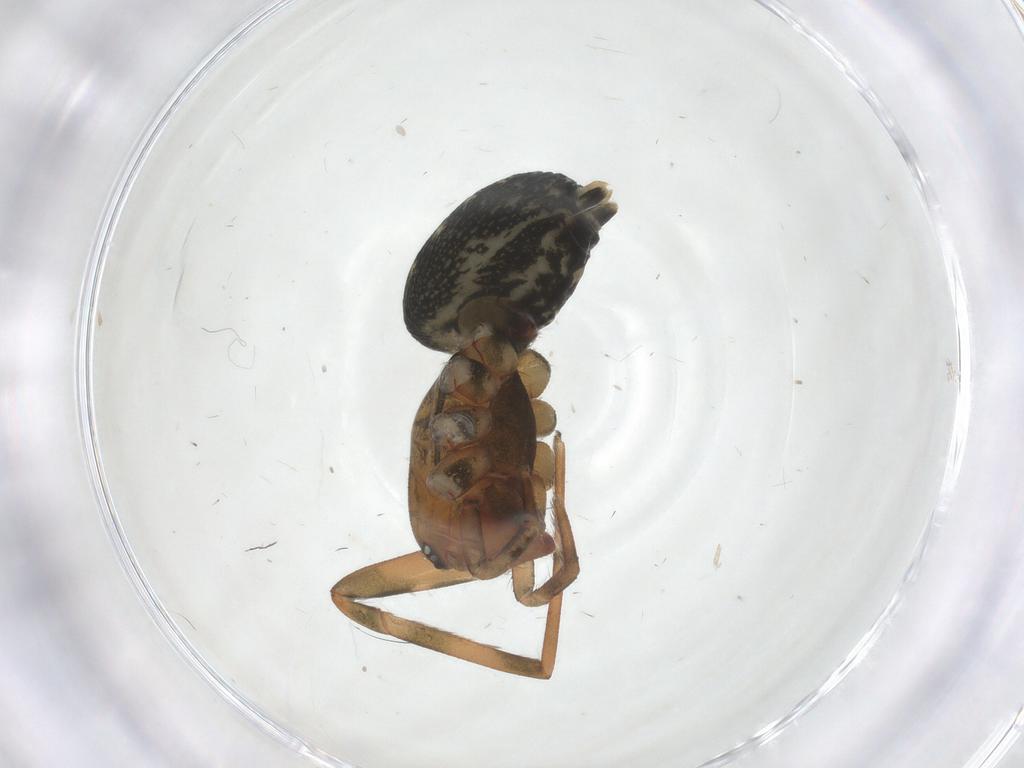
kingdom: Animalia
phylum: Arthropoda
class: Arachnida
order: Araneae
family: Dictynidae
